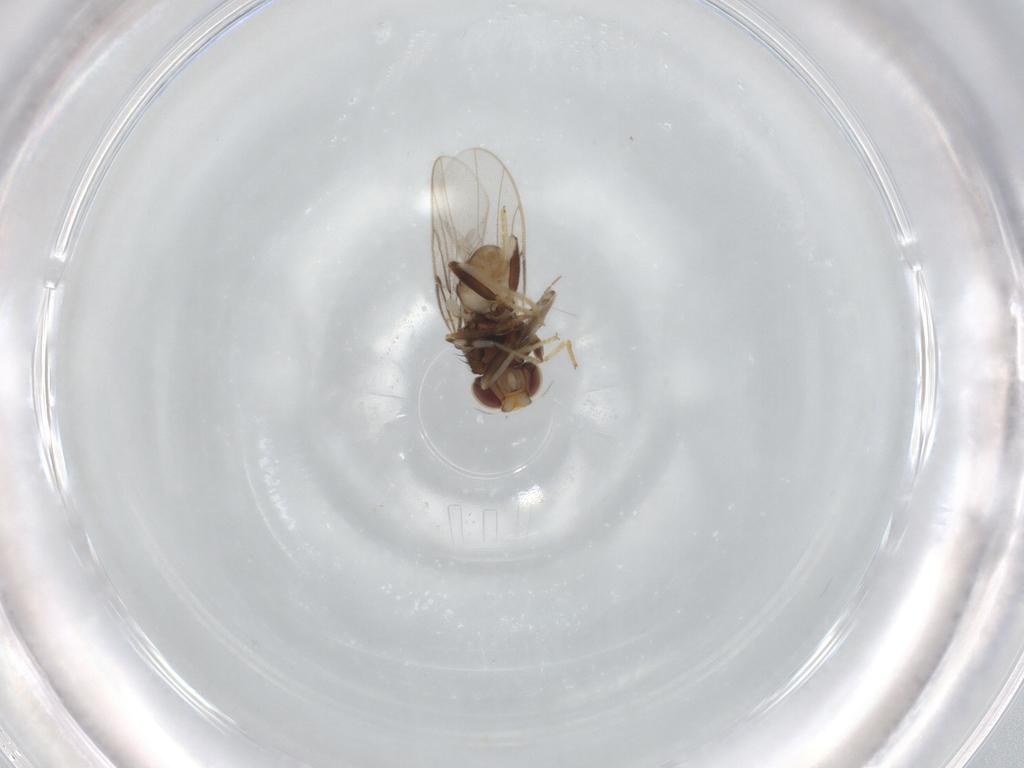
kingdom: Animalia
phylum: Arthropoda
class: Insecta
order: Diptera
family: Chloropidae
